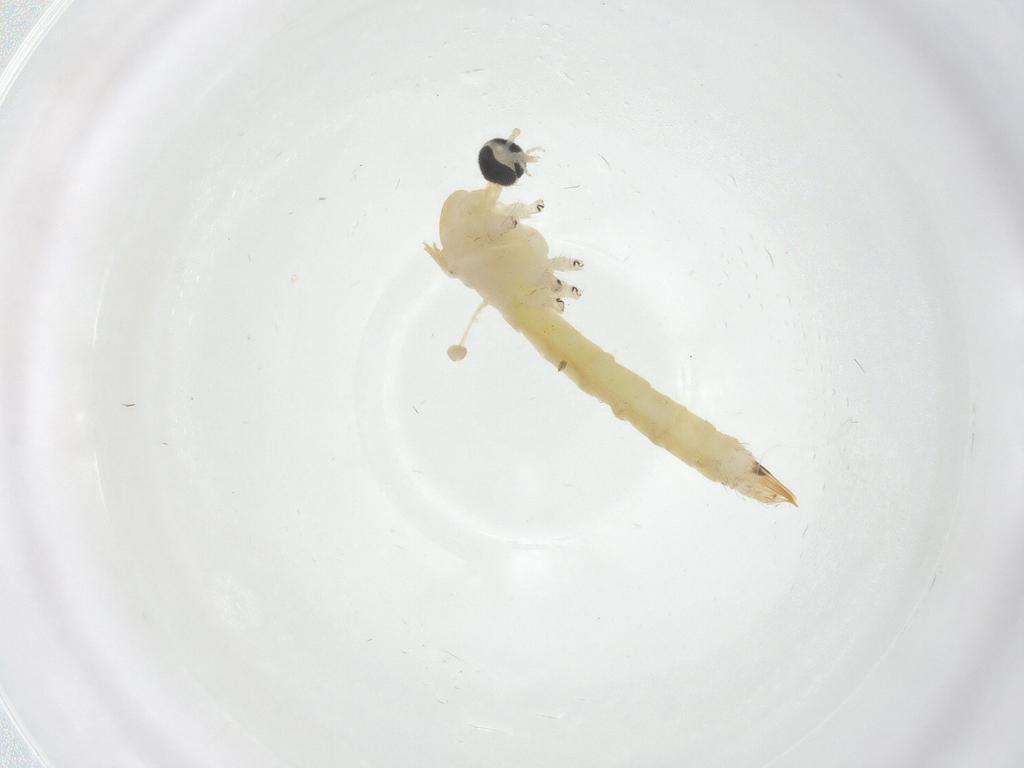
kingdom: Animalia
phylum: Arthropoda
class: Insecta
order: Diptera
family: Limoniidae
